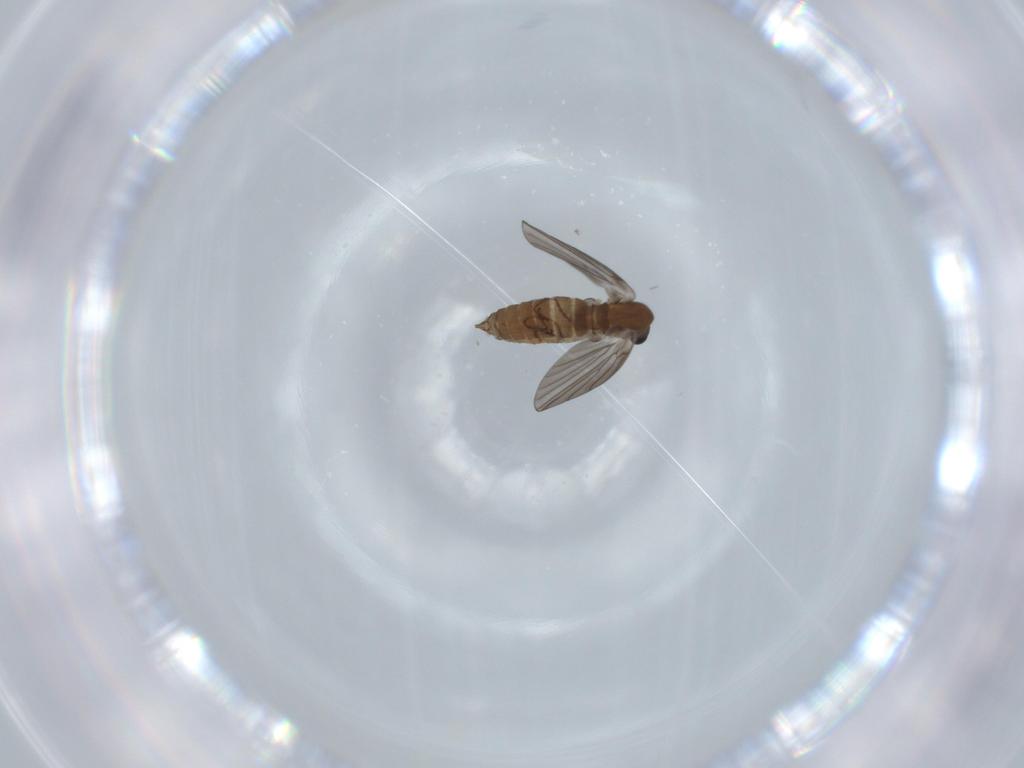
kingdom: Animalia
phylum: Arthropoda
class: Insecta
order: Diptera
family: Psychodidae
